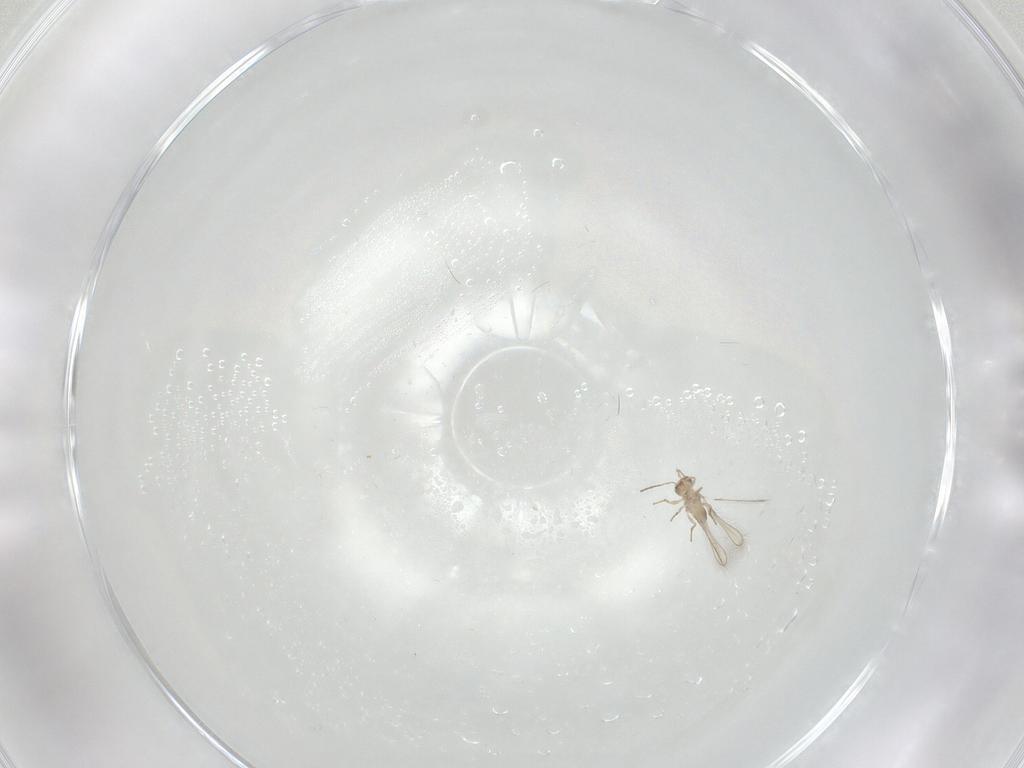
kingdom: Animalia
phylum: Arthropoda
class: Insecta
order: Hymenoptera
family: Mymaridae
